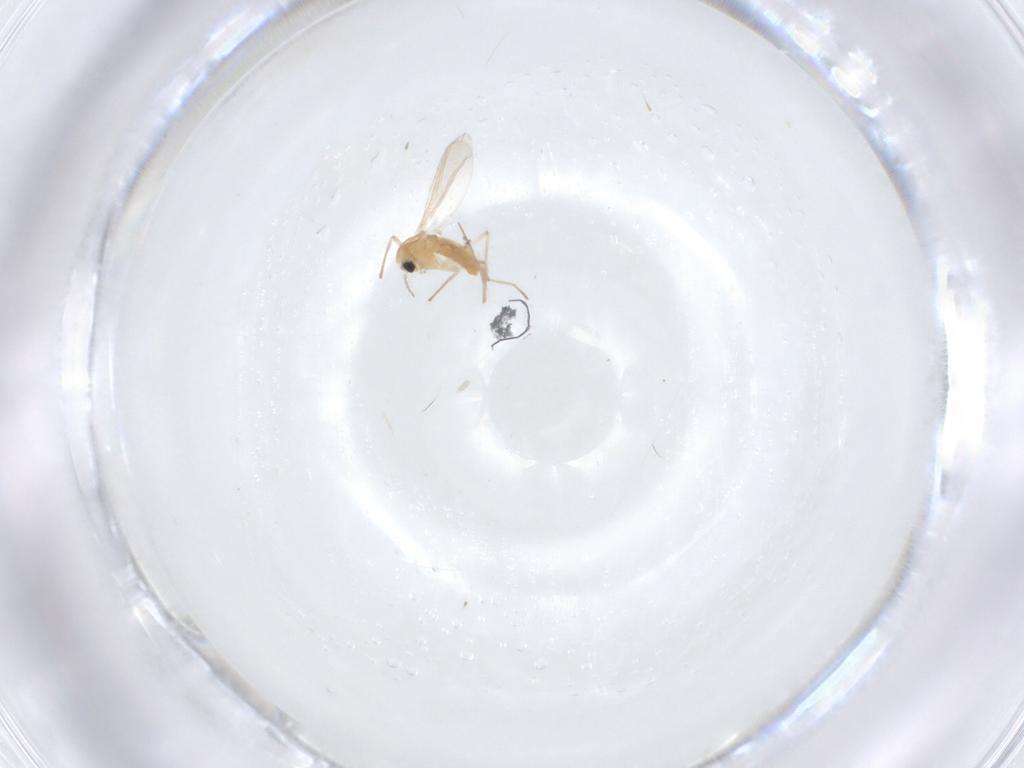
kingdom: Animalia
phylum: Arthropoda
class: Insecta
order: Diptera
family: Cecidomyiidae
